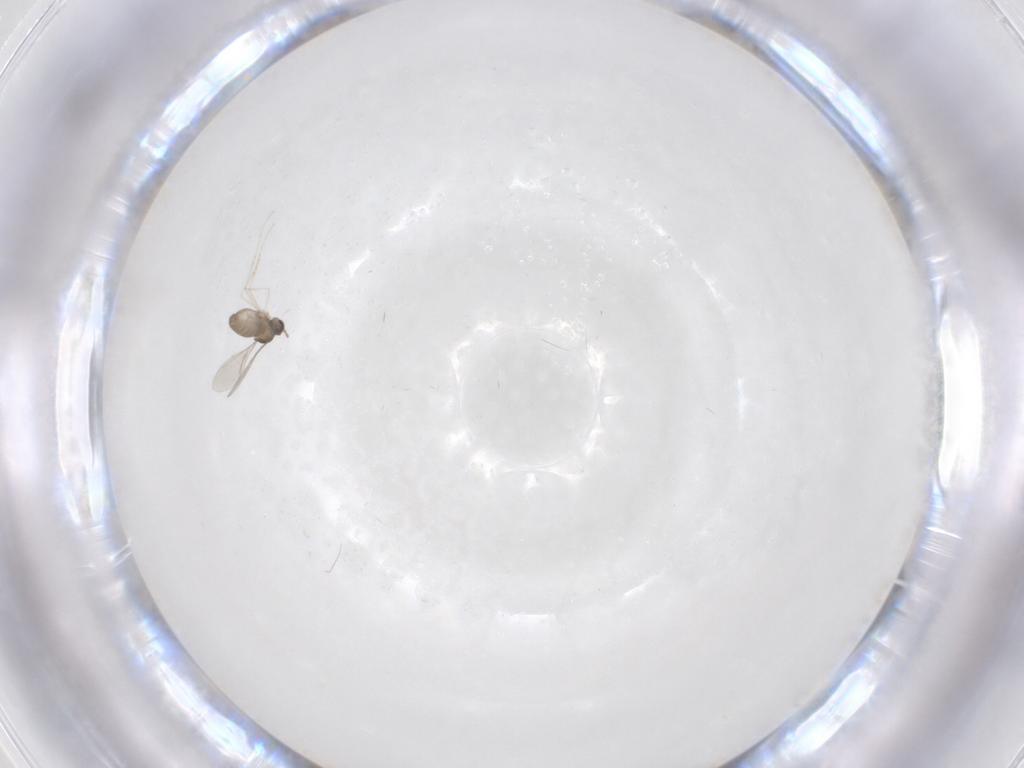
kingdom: Animalia
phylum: Arthropoda
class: Insecta
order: Diptera
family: Cecidomyiidae
